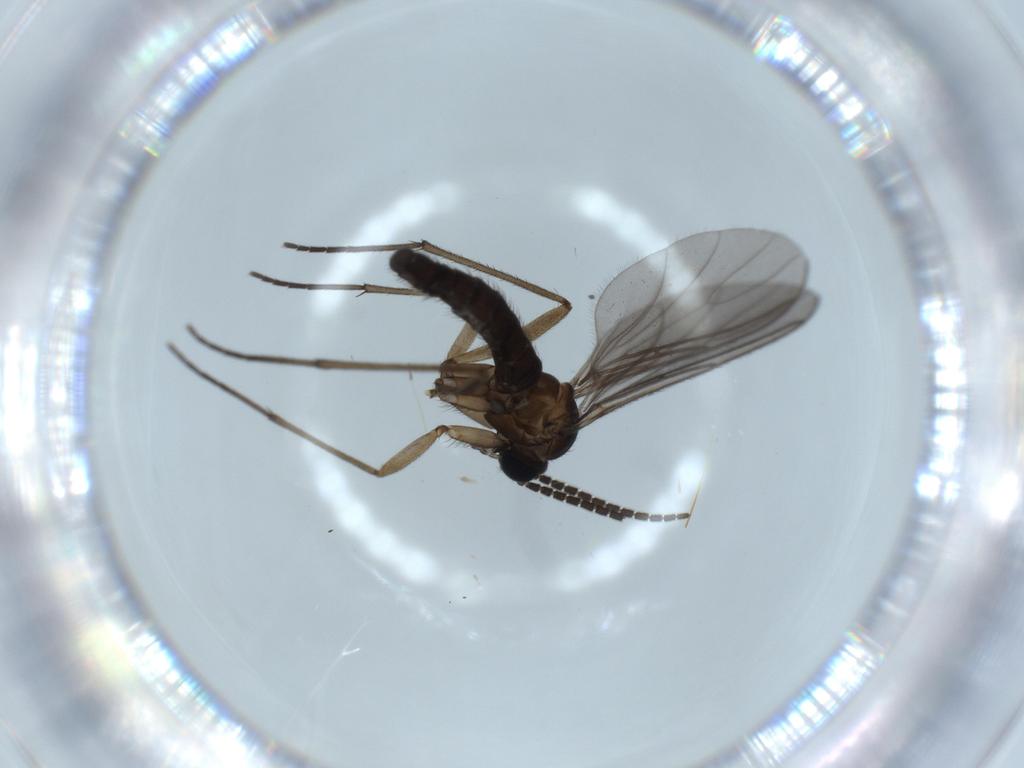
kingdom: Animalia
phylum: Arthropoda
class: Insecta
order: Diptera
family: Sciaridae
